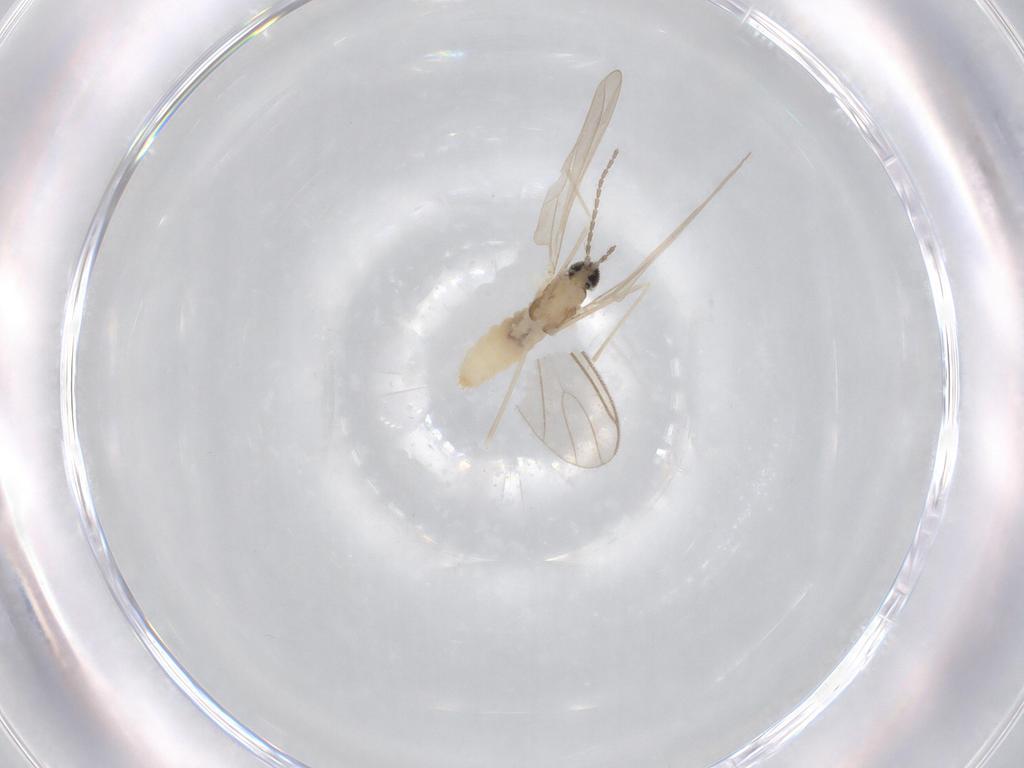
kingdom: Animalia
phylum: Arthropoda
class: Insecta
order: Diptera
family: Cecidomyiidae
